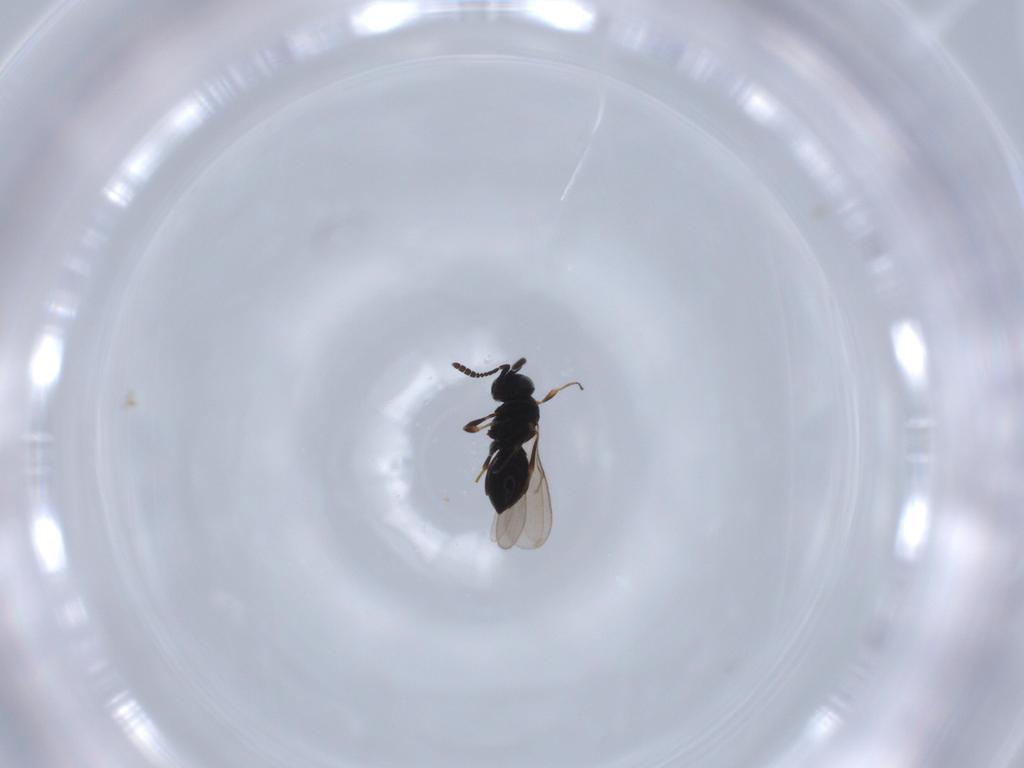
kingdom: Animalia
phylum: Arthropoda
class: Insecta
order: Hymenoptera
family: Scelionidae
